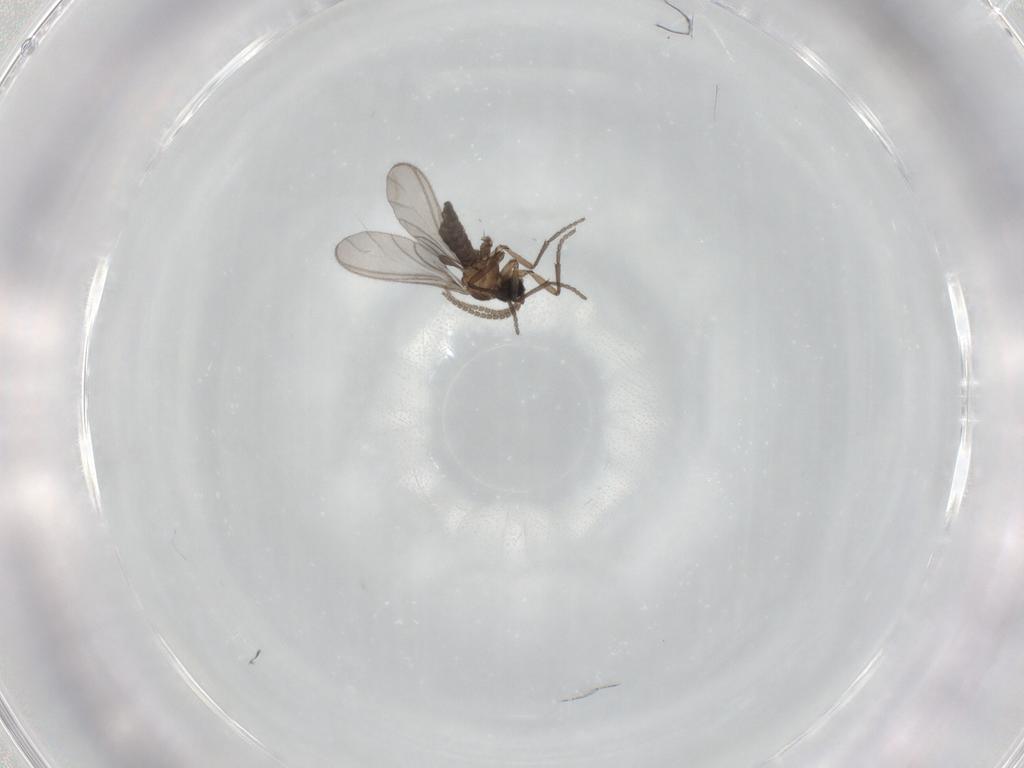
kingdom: Animalia
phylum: Arthropoda
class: Insecta
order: Diptera
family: Sciaridae
